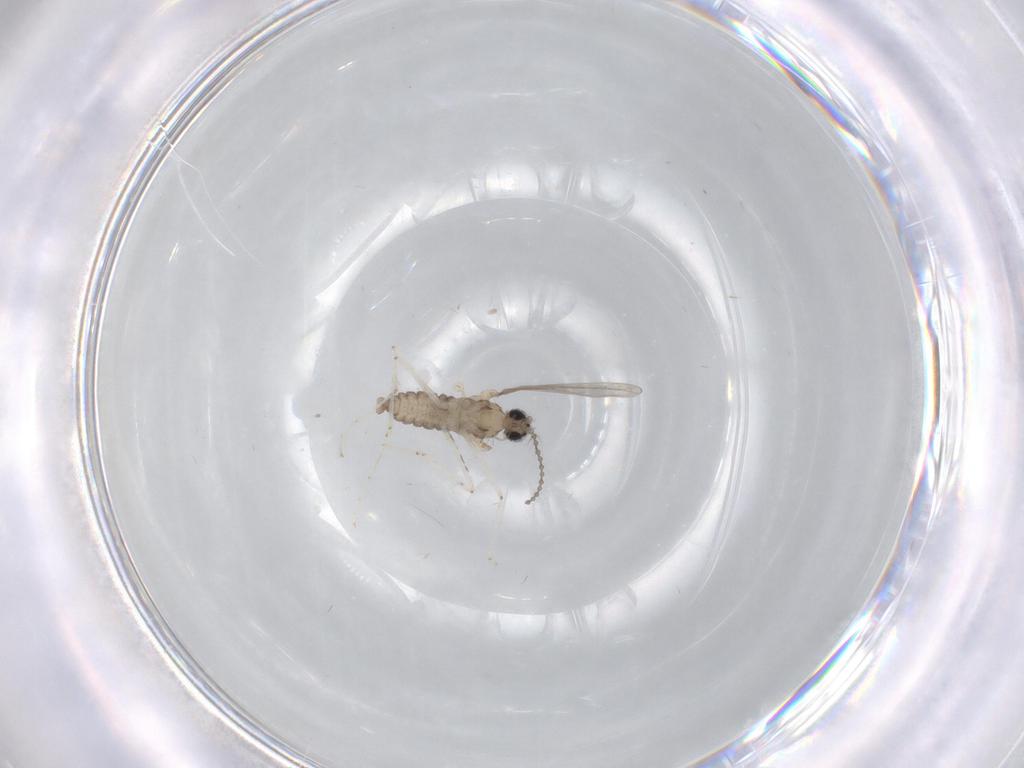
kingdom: Animalia
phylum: Arthropoda
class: Insecta
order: Diptera
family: Cecidomyiidae
